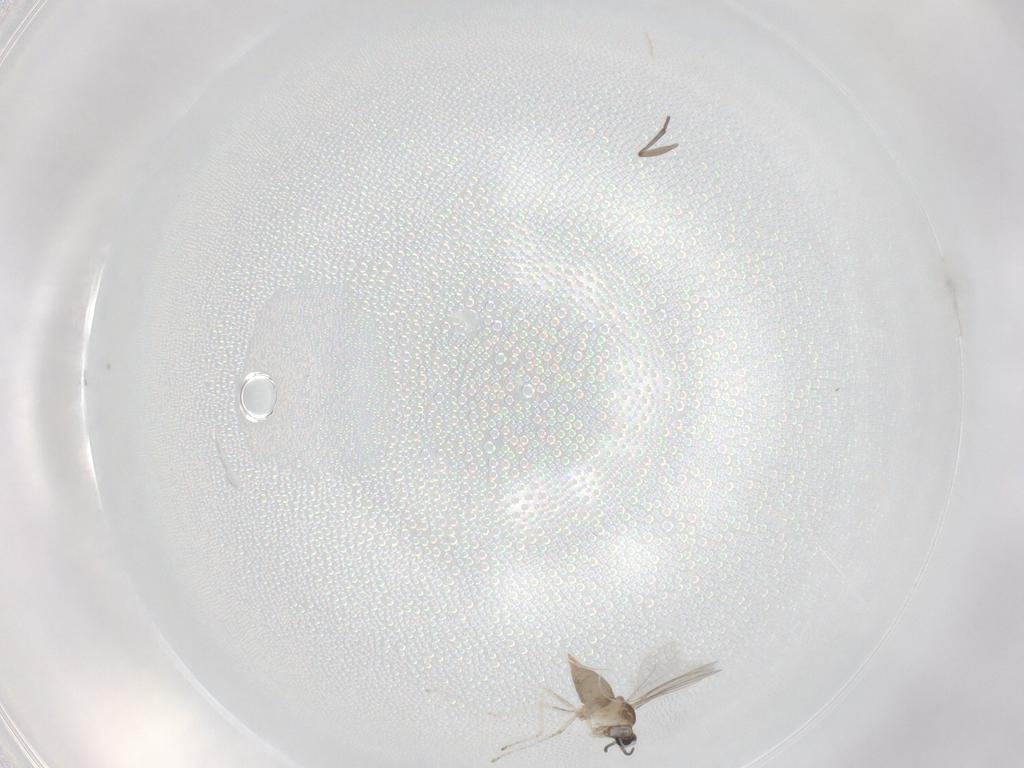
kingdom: Animalia
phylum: Arthropoda
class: Insecta
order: Diptera
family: Phoridae
